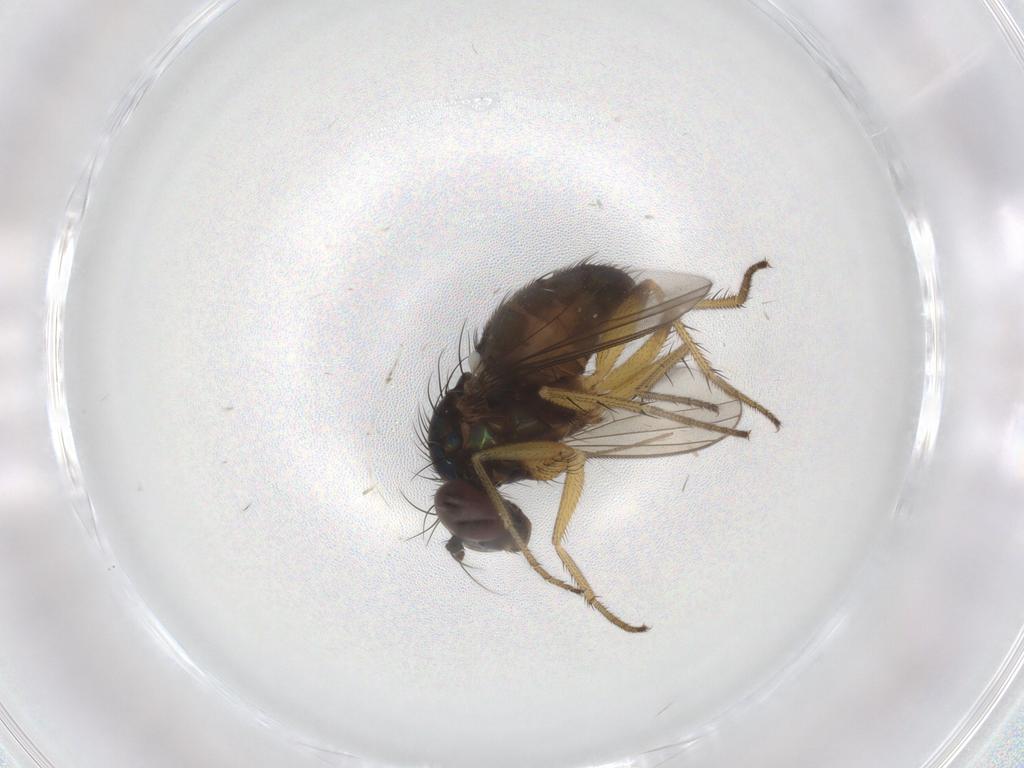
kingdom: Animalia
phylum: Arthropoda
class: Insecta
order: Diptera
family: Dolichopodidae
